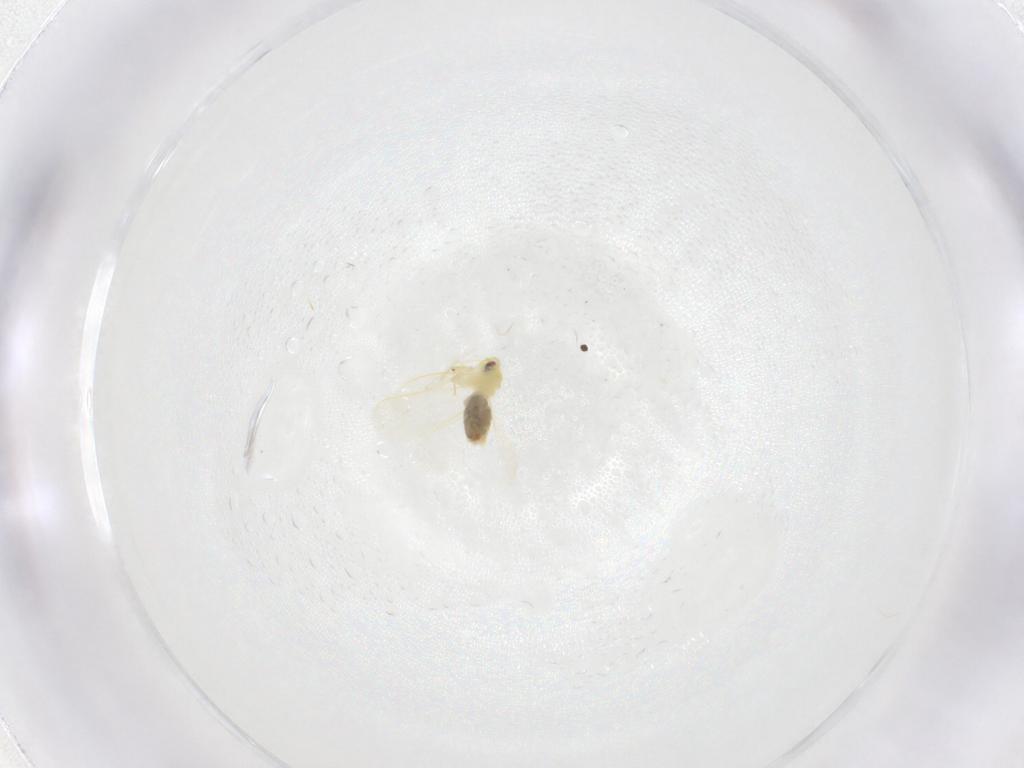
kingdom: Animalia
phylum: Arthropoda
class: Insecta
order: Hemiptera
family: Aleyrodidae
